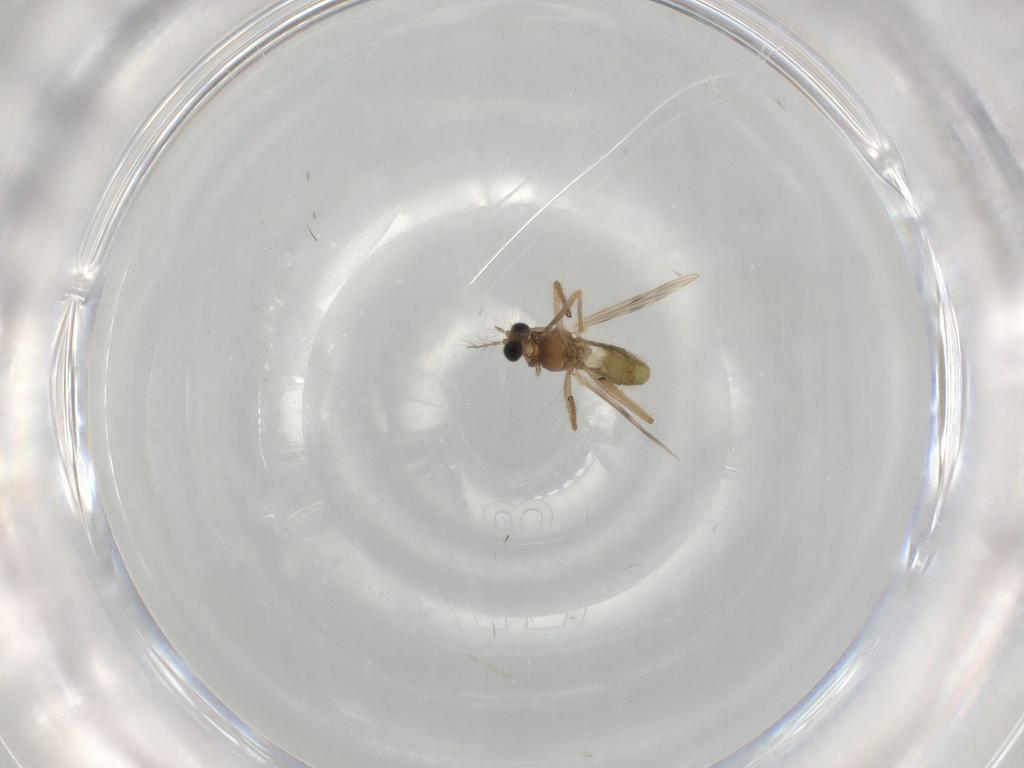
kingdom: Animalia
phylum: Arthropoda
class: Insecta
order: Diptera
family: Chironomidae
